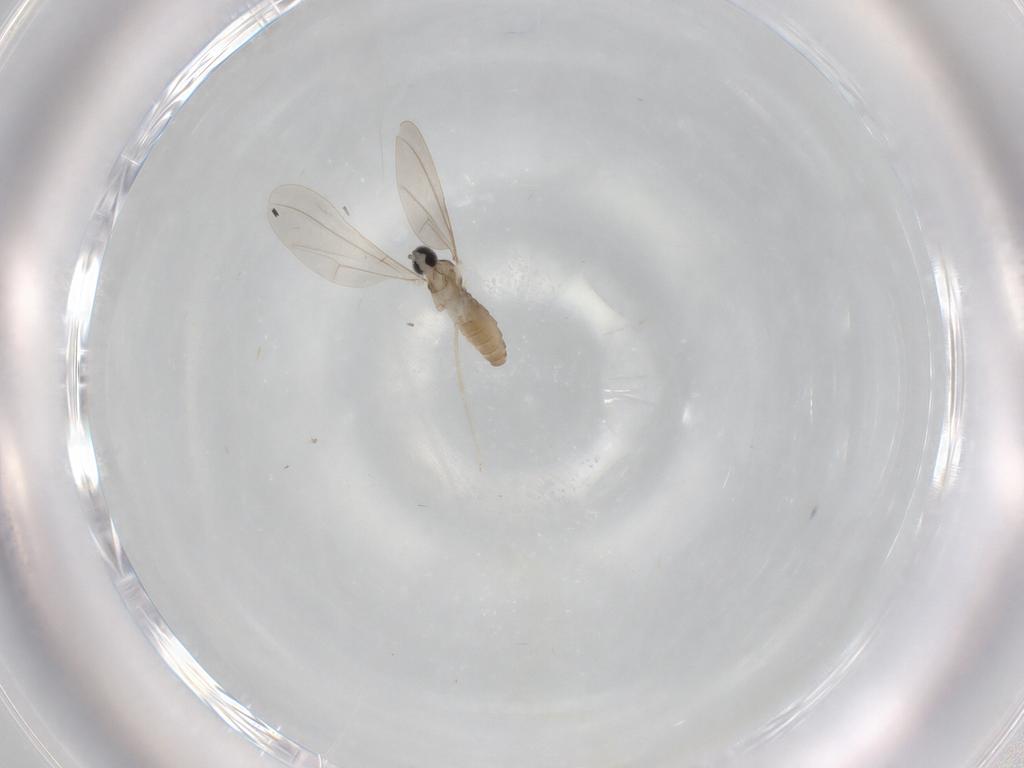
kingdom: Animalia
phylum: Arthropoda
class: Insecta
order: Diptera
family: Cecidomyiidae
